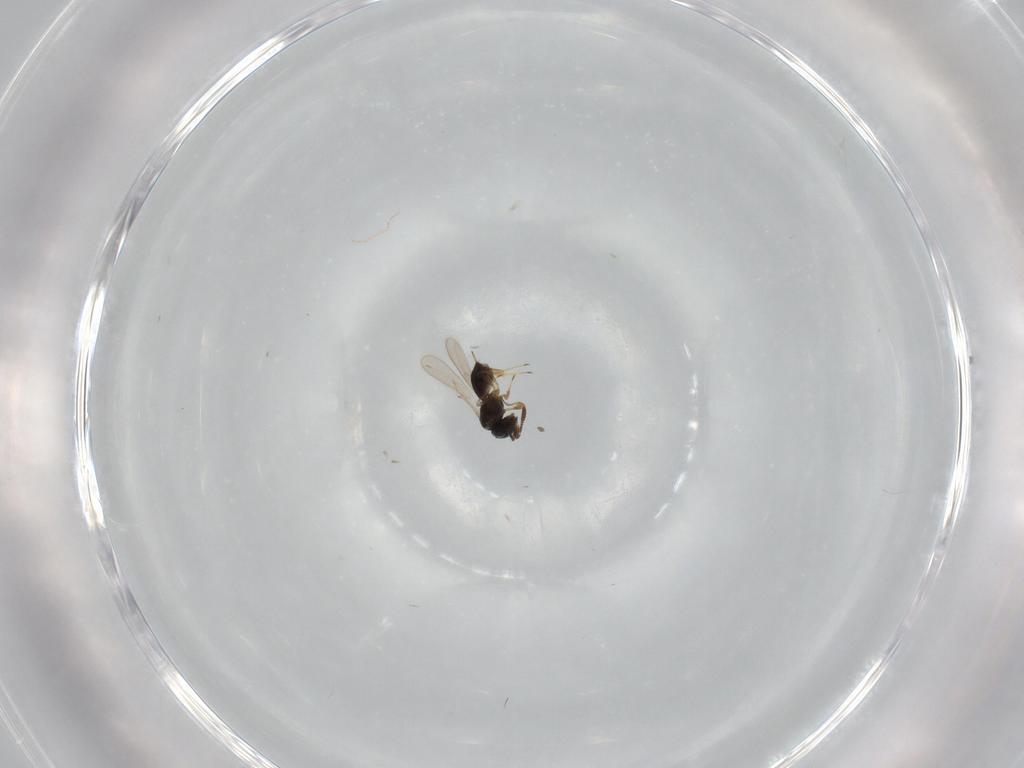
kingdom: Animalia
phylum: Arthropoda
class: Insecta
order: Hymenoptera
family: Scelionidae
